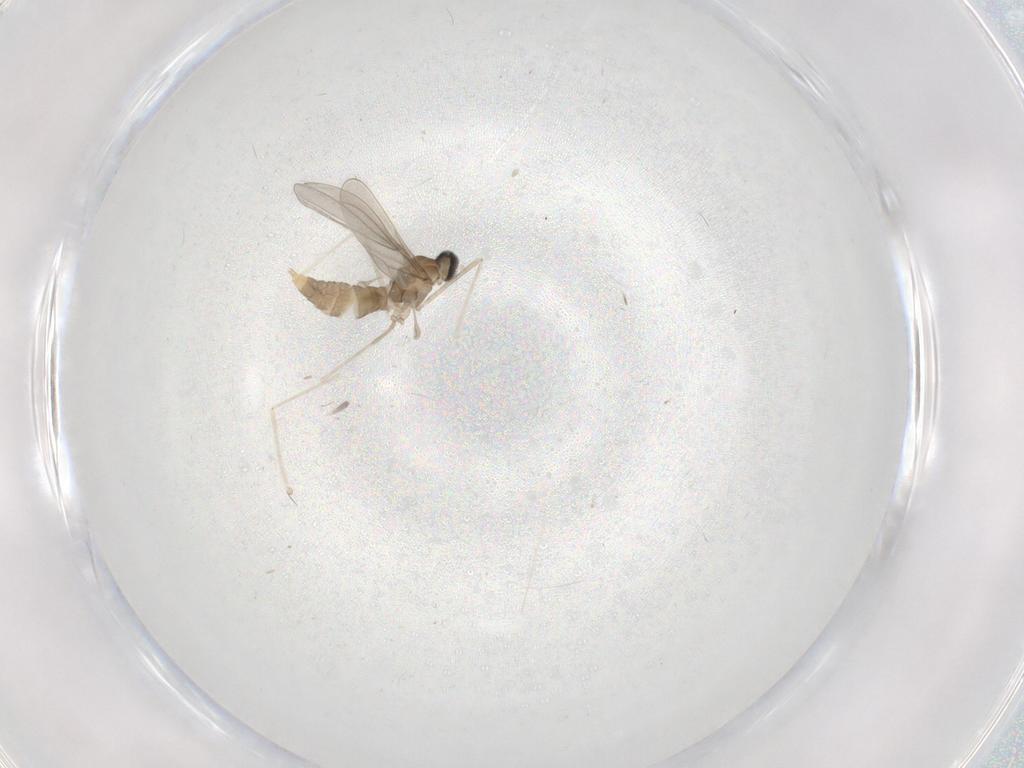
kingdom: Animalia
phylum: Arthropoda
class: Insecta
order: Diptera
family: Cecidomyiidae
